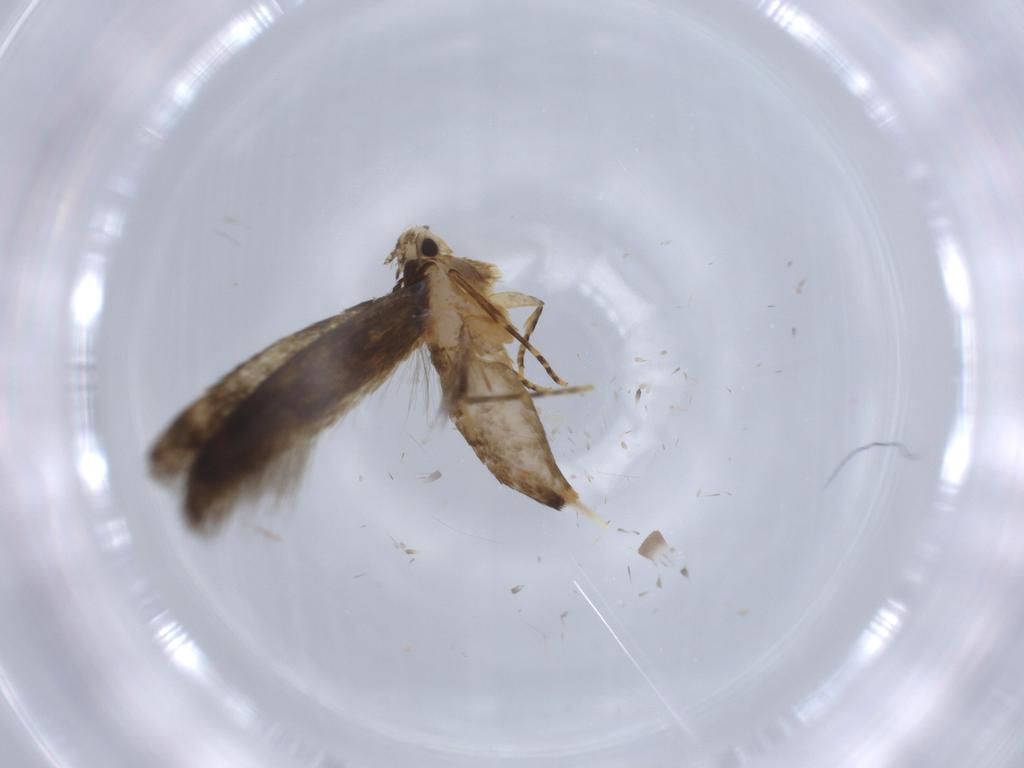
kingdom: Animalia
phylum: Arthropoda
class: Insecta
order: Lepidoptera
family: Tineidae
